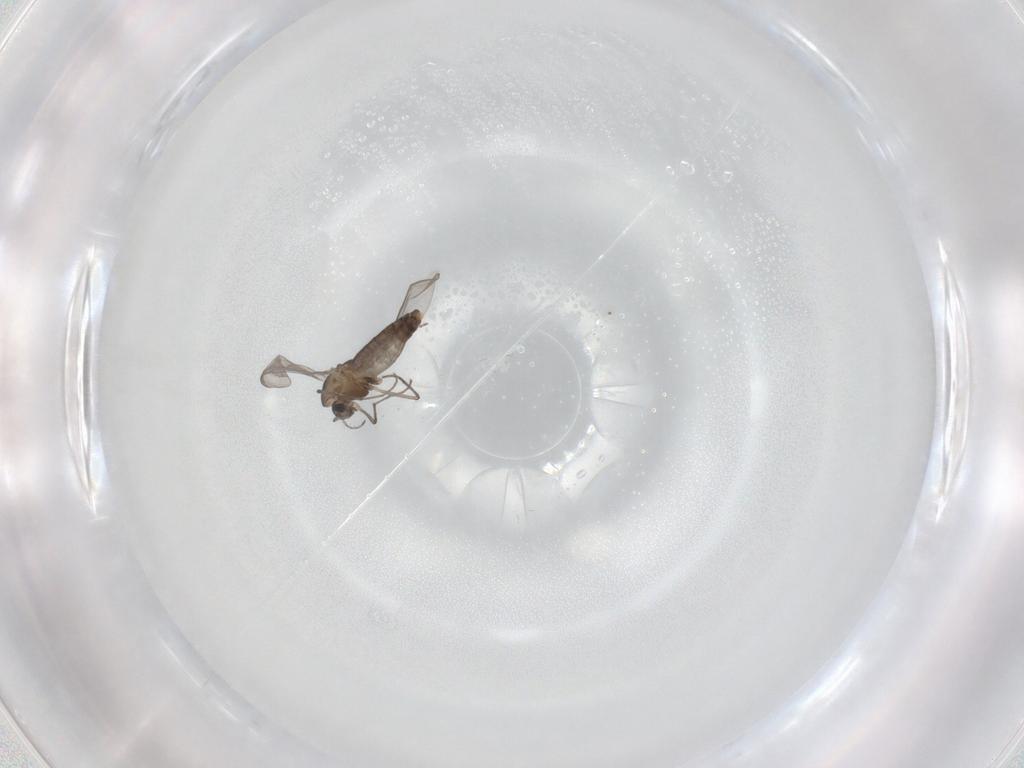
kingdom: Animalia
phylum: Arthropoda
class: Insecta
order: Diptera
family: Chironomidae
